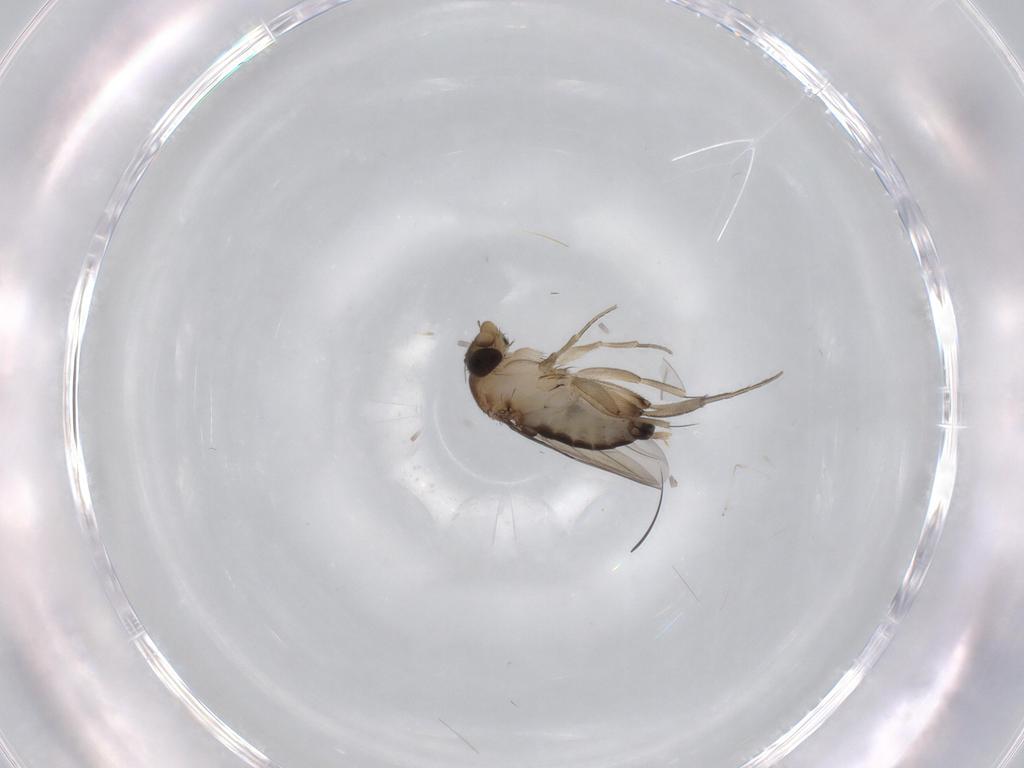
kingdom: Animalia
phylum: Arthropoda
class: Insecta
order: Diptera
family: Phoridae
